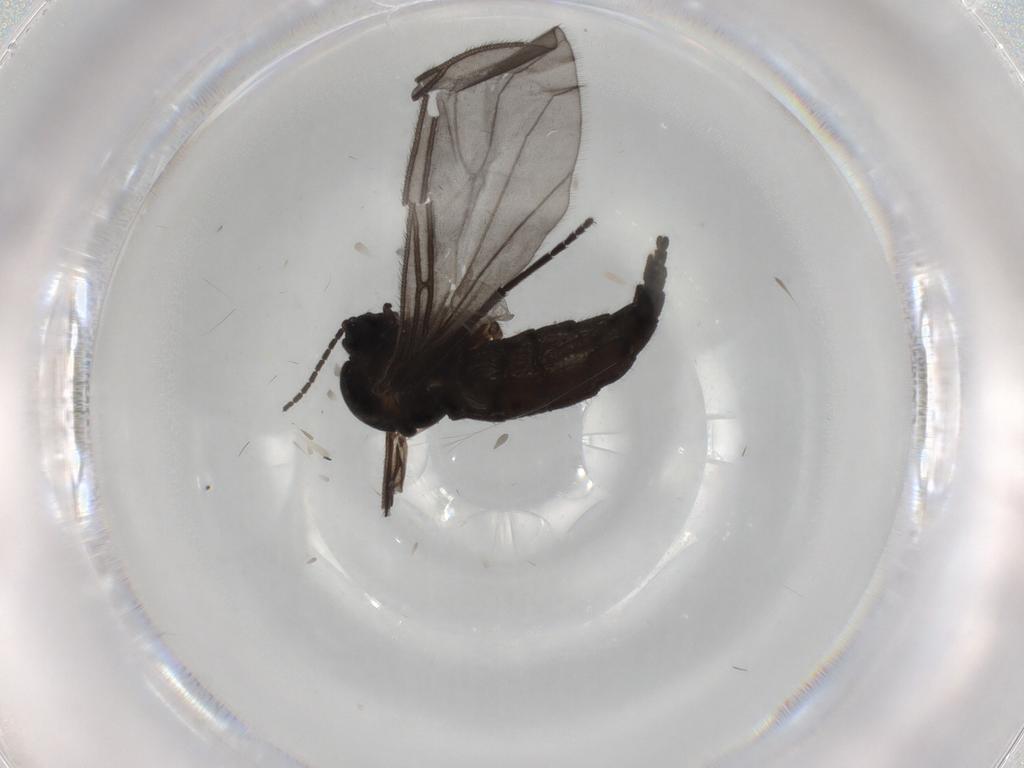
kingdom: Animalia
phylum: Arthropoda
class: Insecta
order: Diptera
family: Sciaridae
